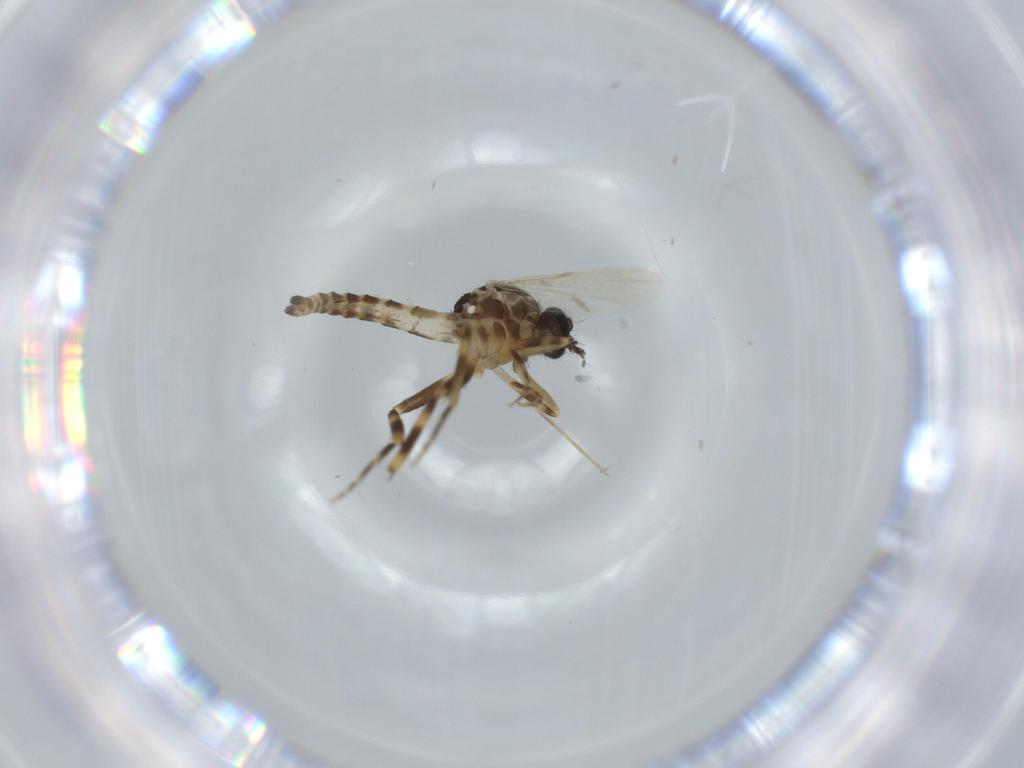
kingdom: Animalia
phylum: Arthropoda
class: Insecta
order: Diptera
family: Ceratopogonidae
